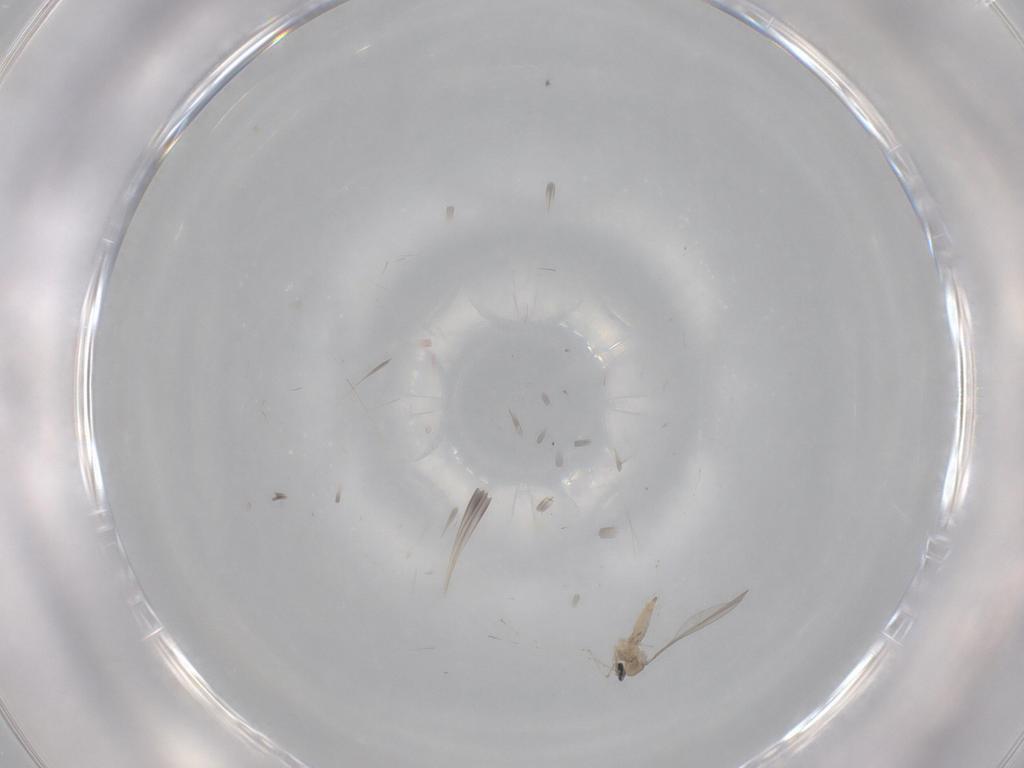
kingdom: Animalia
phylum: Arthropoda
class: Insecta
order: Diptera
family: Cecidomyiidae
